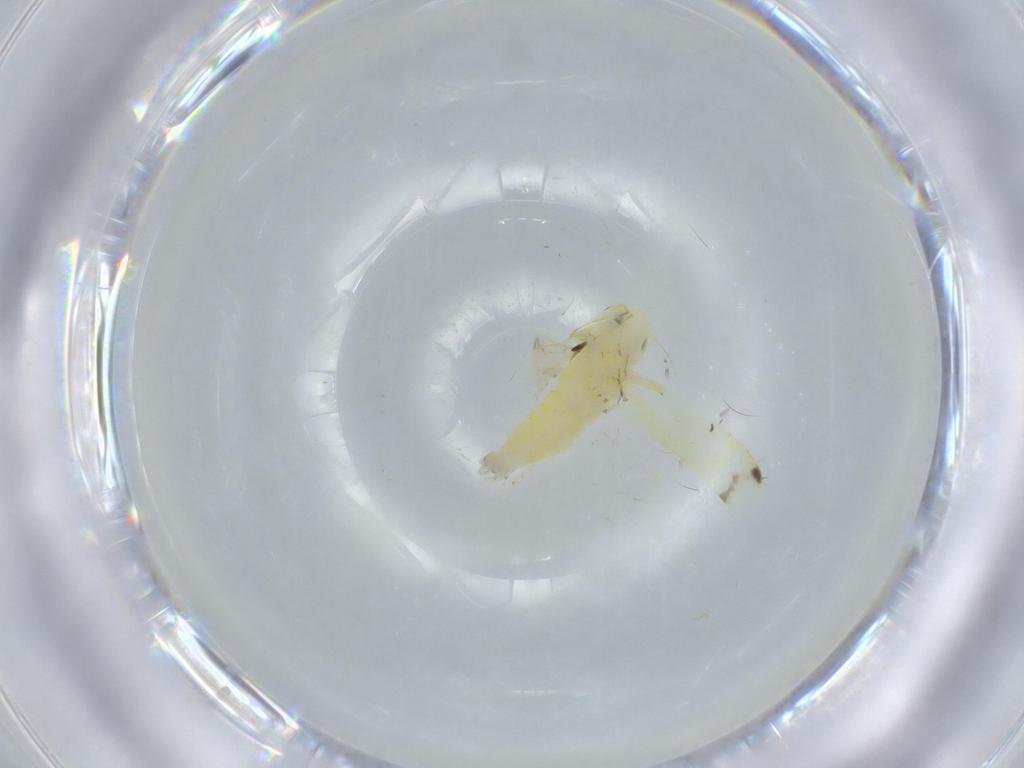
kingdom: Animalia
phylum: Arthropoda
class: Insecta
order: Hemiptera
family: Cicadellidae
